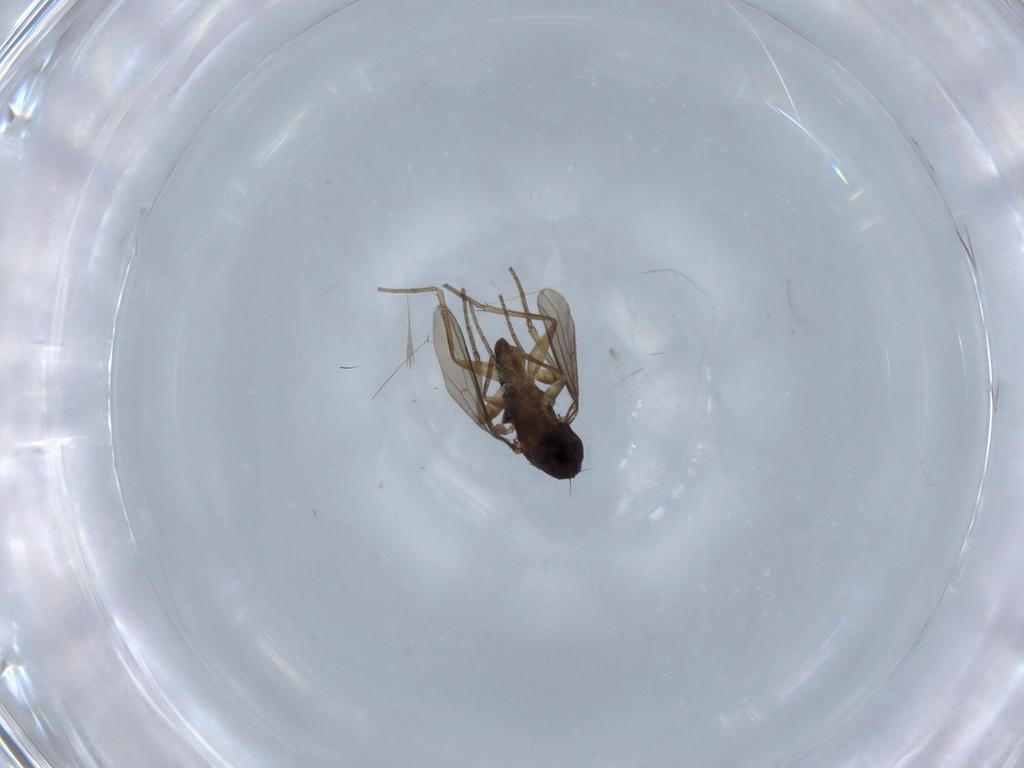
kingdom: Animalia
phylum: Arthropoda
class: Insecta
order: Diptera
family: Dolichopodidae
